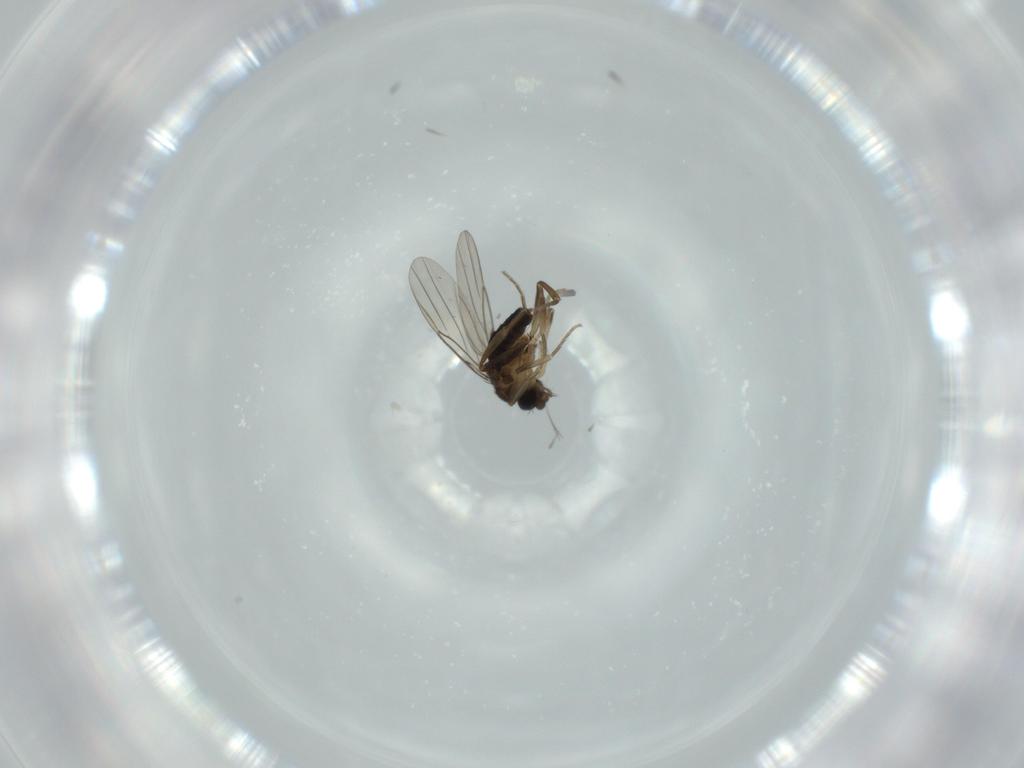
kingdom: Animalia
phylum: Arthropoda
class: Insecta
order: Diptera
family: Phoridae
